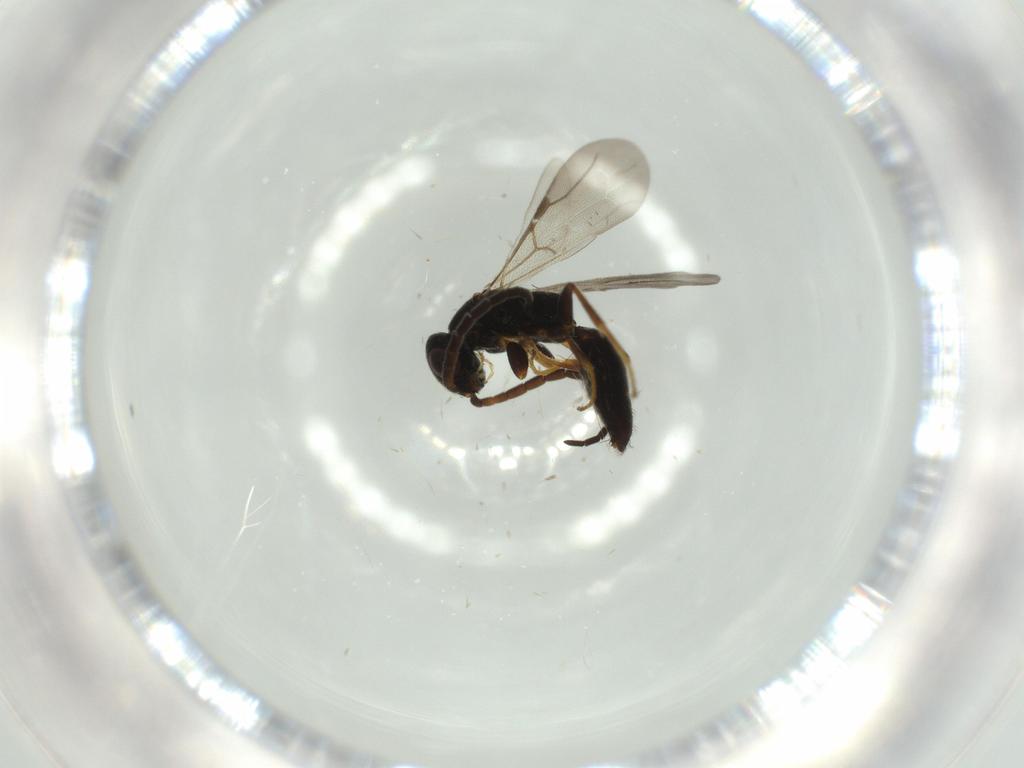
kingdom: Animalia
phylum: Arthropoda
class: Insecta
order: Hymenoptera
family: Bethylidae
